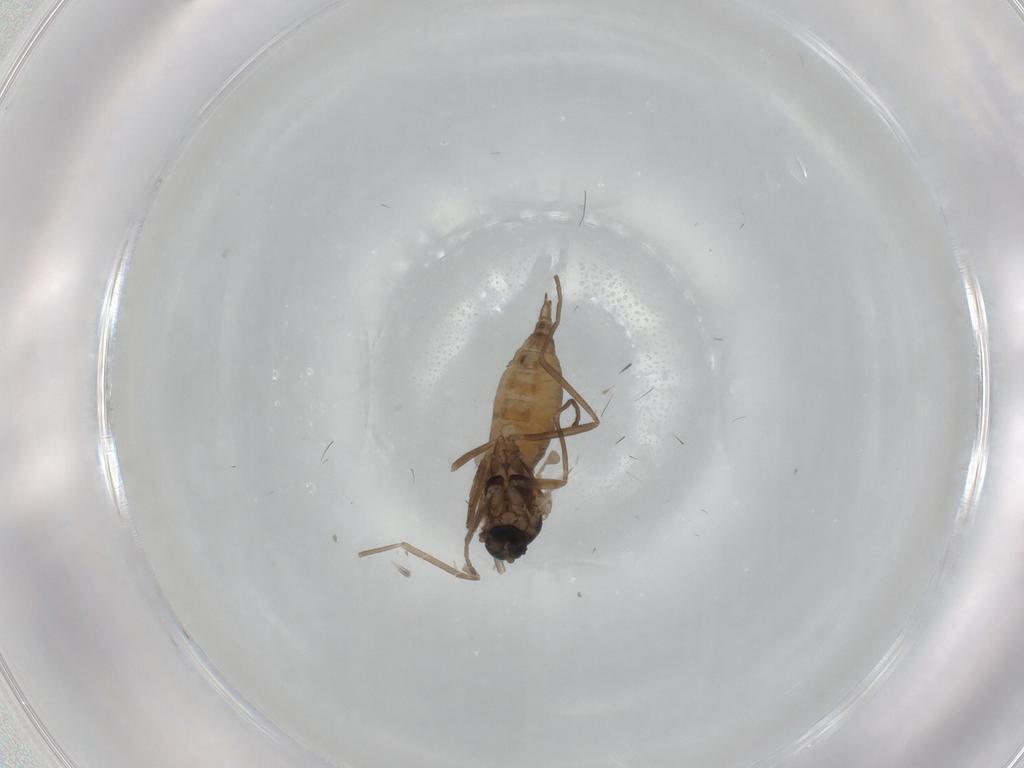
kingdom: Animalia
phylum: Arthropoda
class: Insecta
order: Diptera
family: Cecidomyiidae
